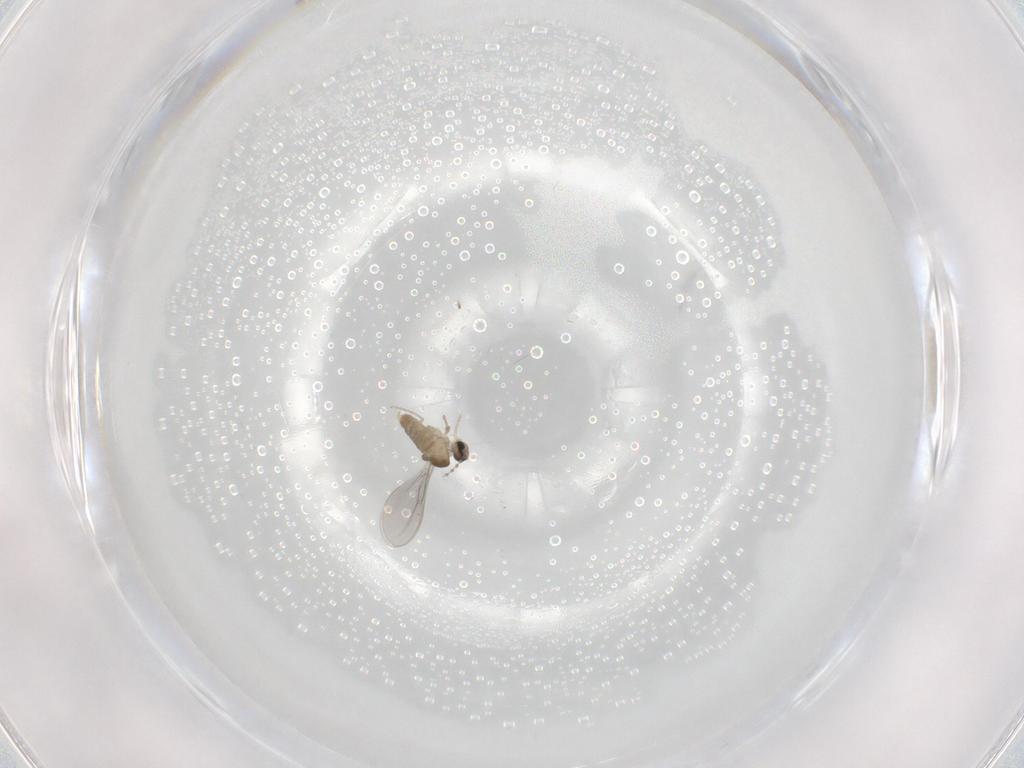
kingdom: Animalia
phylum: Arthropoda
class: Insecta
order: Diptera
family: Cecidomyiidae
